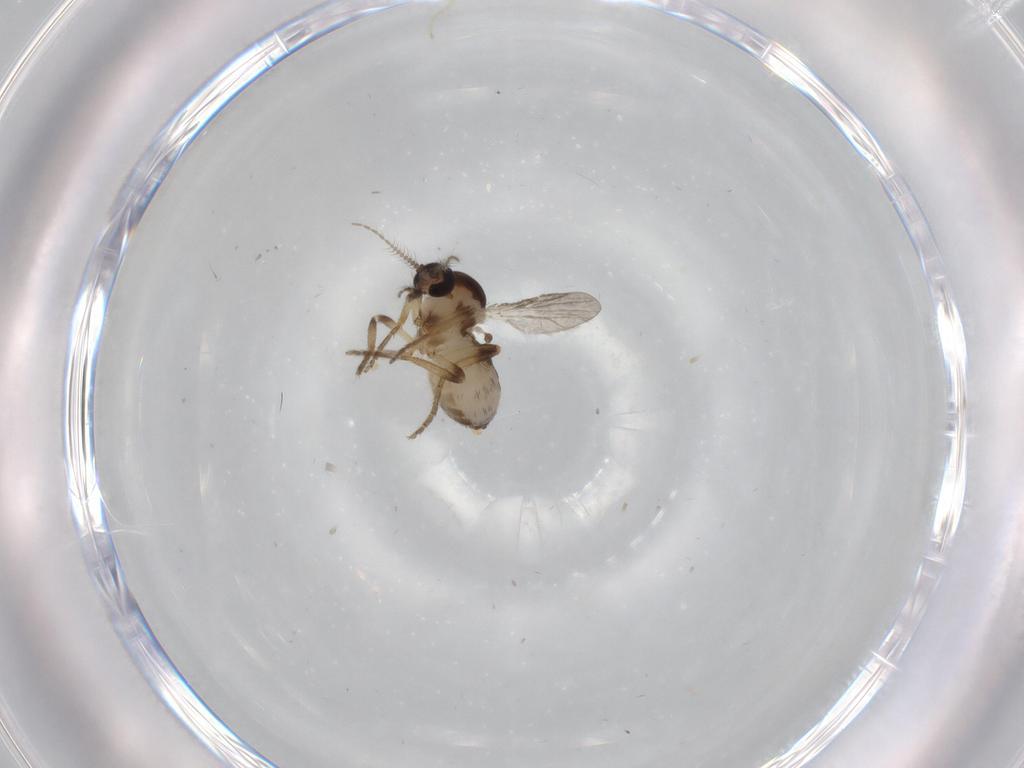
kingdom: Animalia
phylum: Arthropoda
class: Insecta
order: Diptera
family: Ceratopogonidae
